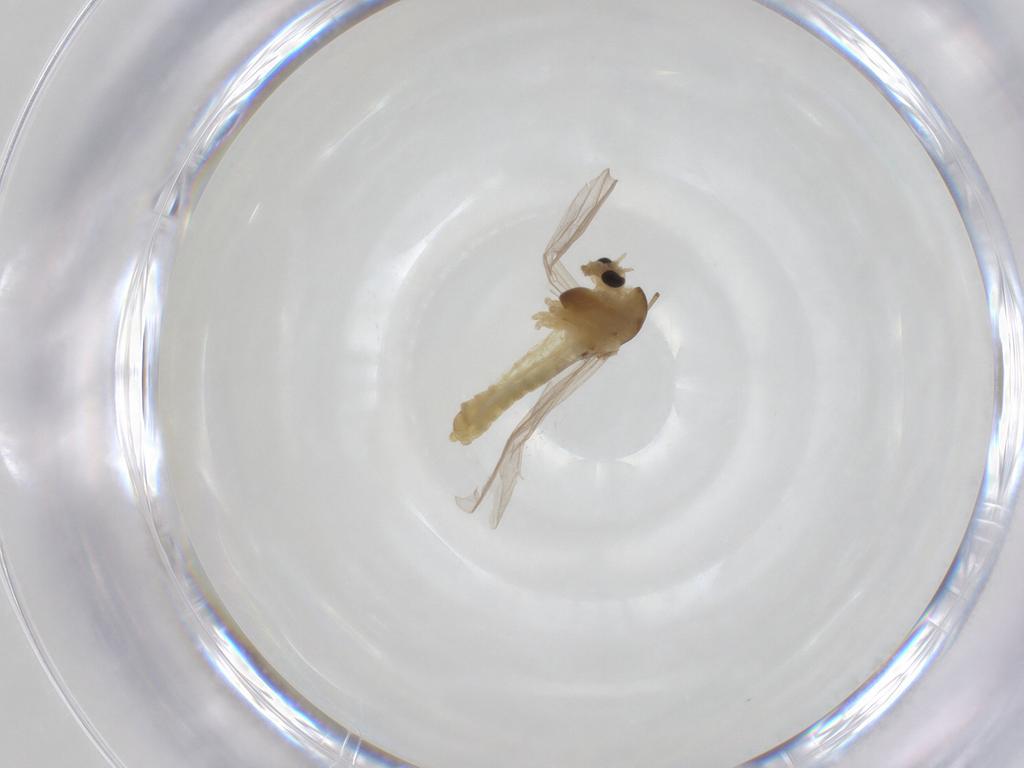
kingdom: Animalia
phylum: Arthropoda
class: Insecta
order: Diptera
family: Chironomidae
